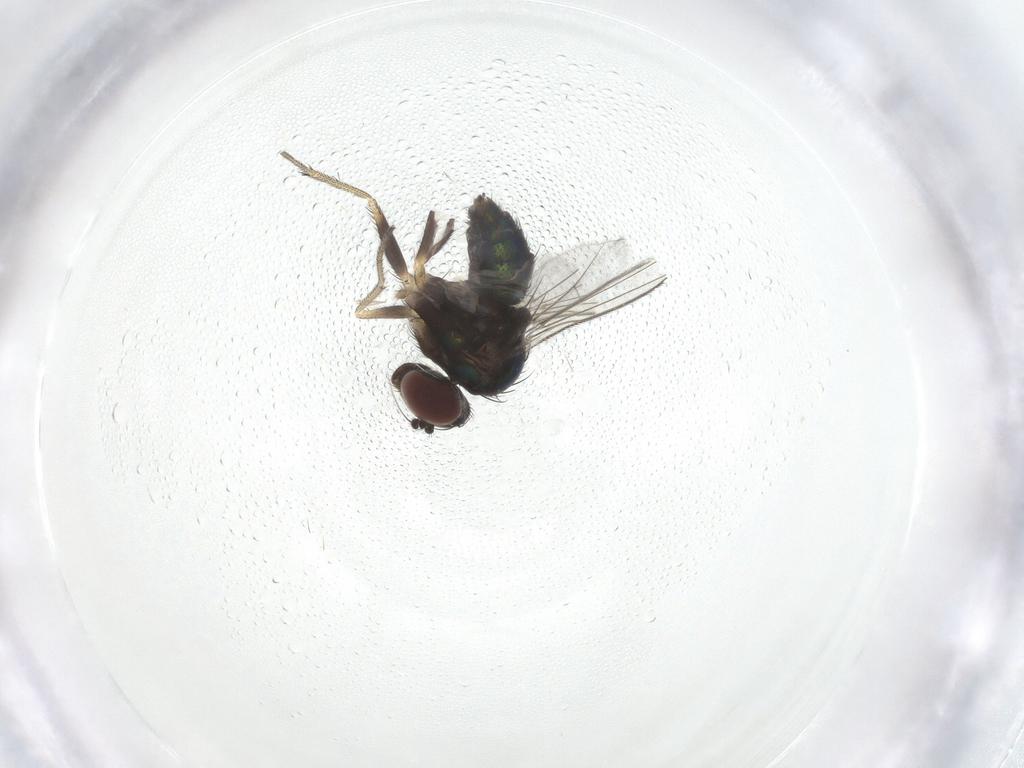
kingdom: Animalia
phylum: Arthropoda
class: Insecta
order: Diptera
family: Dolichopodidae
